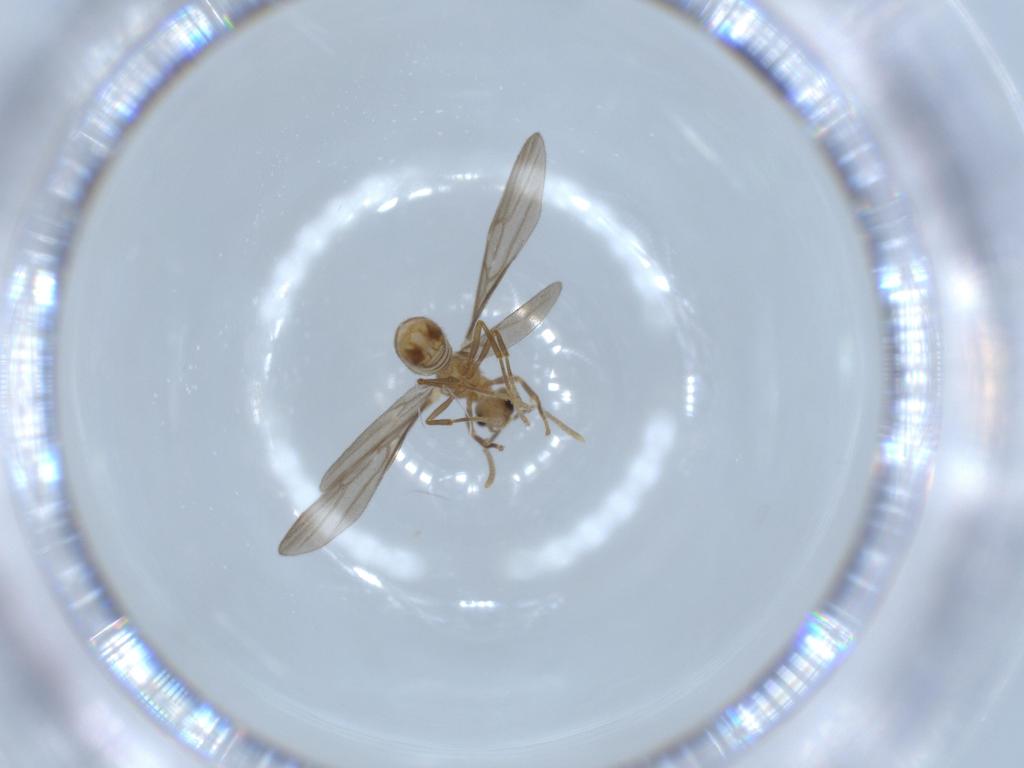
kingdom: Animalia
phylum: Arthropoda
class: Insecta
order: Hymenoptera
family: Formicidae
